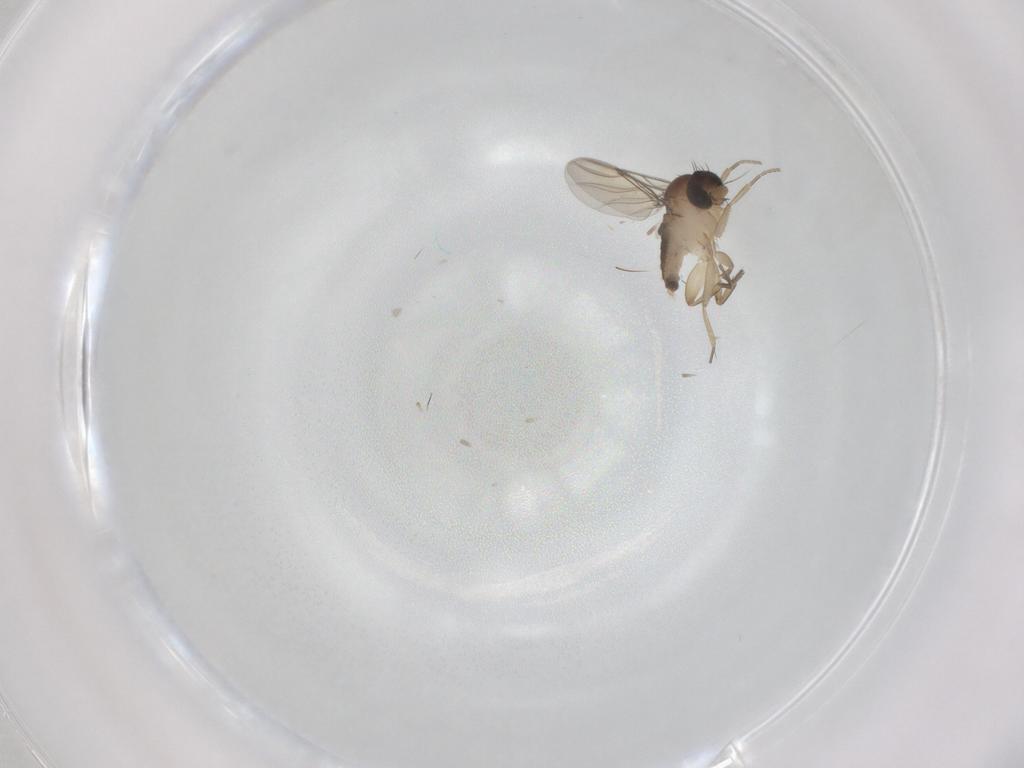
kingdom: Animalia
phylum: Arthropoda
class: Insecta
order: Diptera
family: Phoridae
